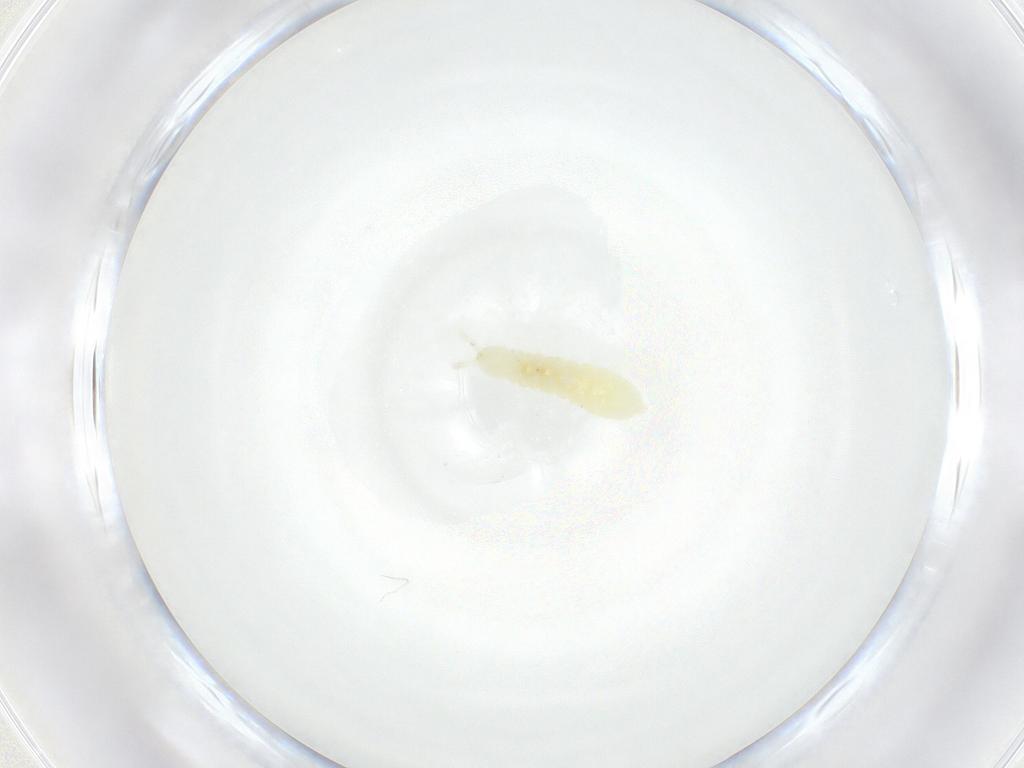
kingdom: Animalia
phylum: Arthropoda
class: Collembola
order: Poduromorpha
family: Onychiuridae
